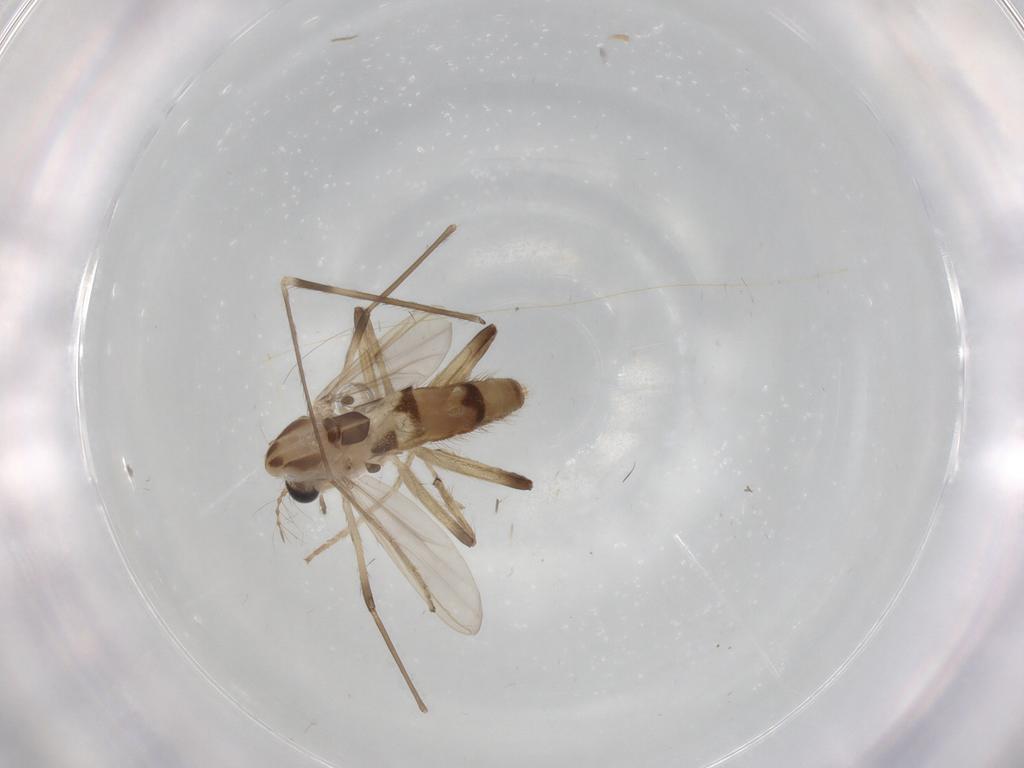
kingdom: Animalia
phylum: Arthropoda
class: Insecta
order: Diptera
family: Chironomidae
